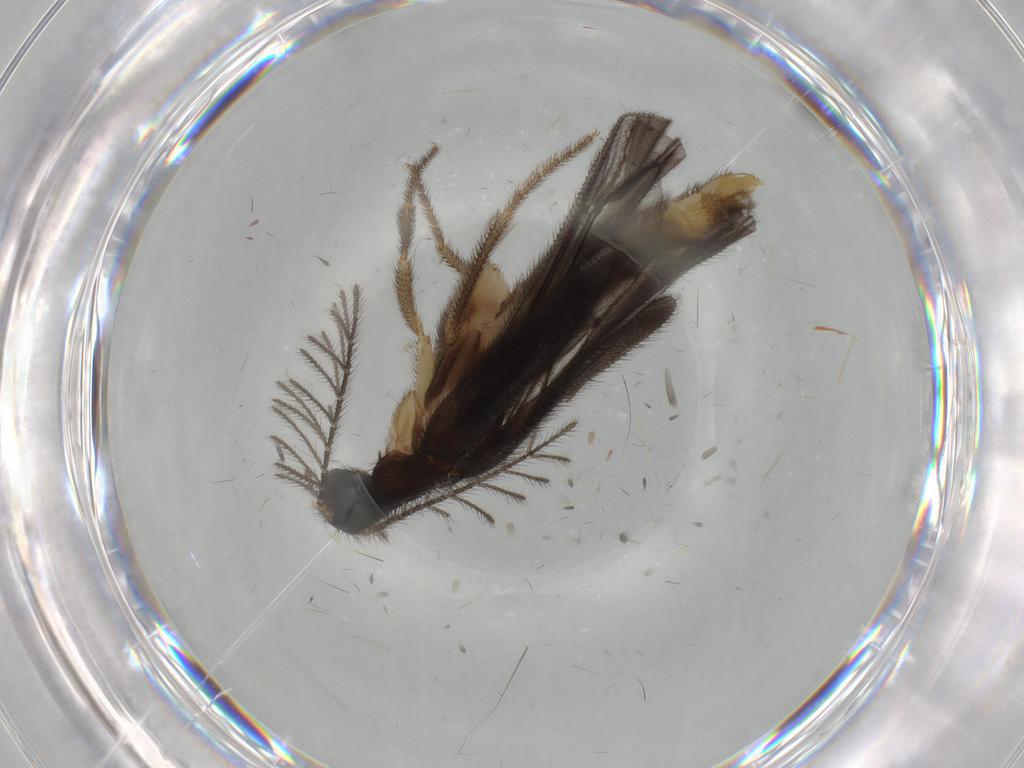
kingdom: Animalia
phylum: Arthropoda
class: Insecta
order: Coleoptera
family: Phengodidae
